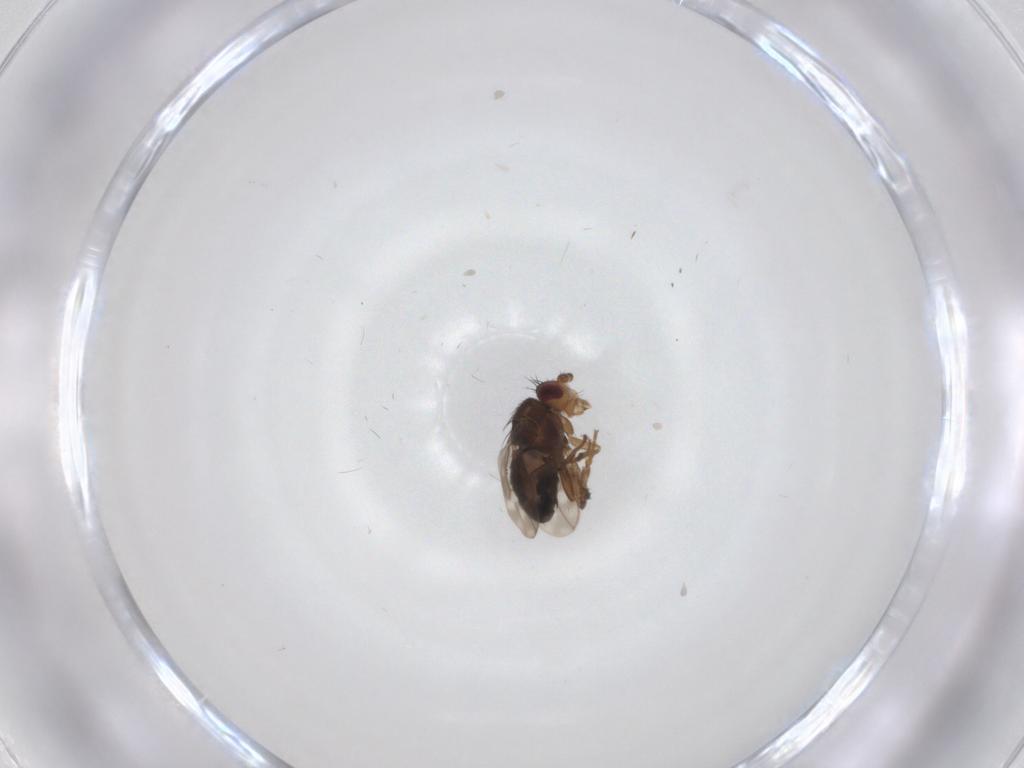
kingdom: Animalia
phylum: Arthropoda
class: Insecta
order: Diptera
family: Sphaeroceridae
